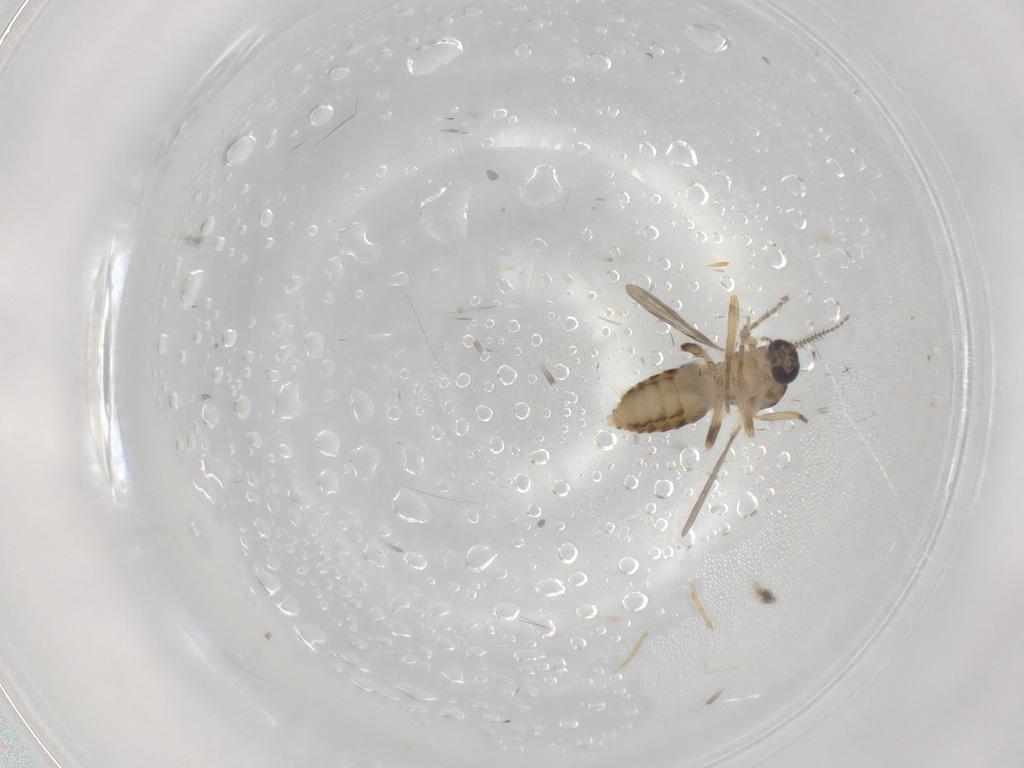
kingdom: Animalia
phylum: Arthropoda
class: Insecta
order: Diptera
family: Ceratopogonidae
